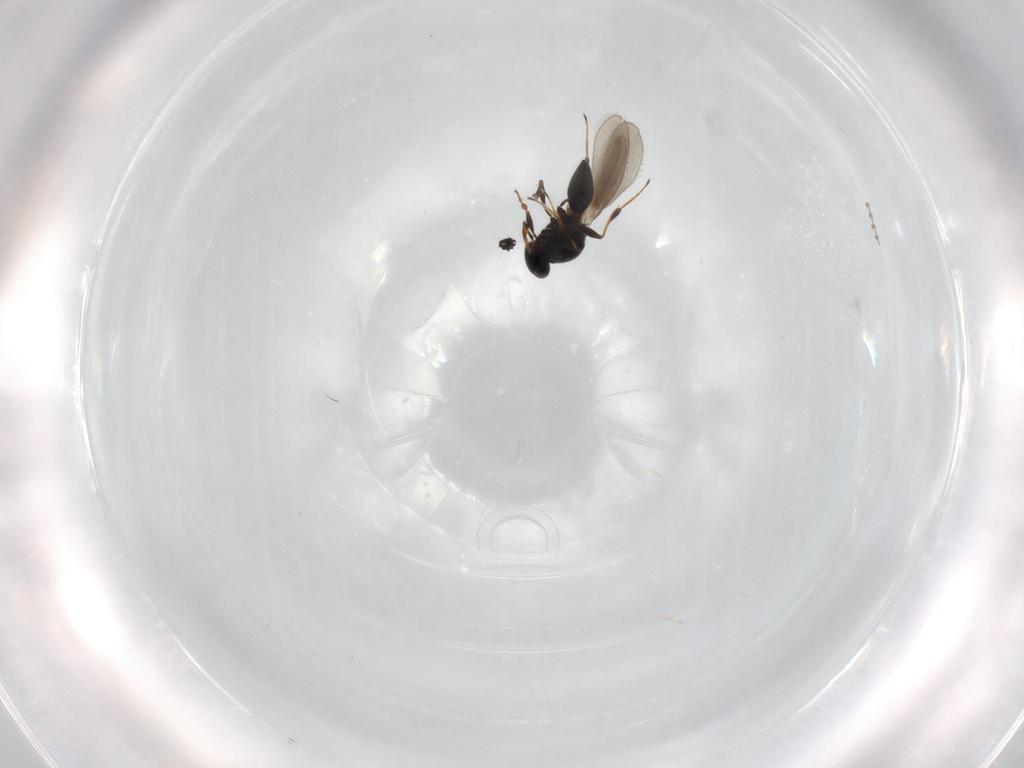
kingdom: Animalia
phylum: Arthropoda
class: Insecta
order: Hymenoptera
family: Platygastridae
